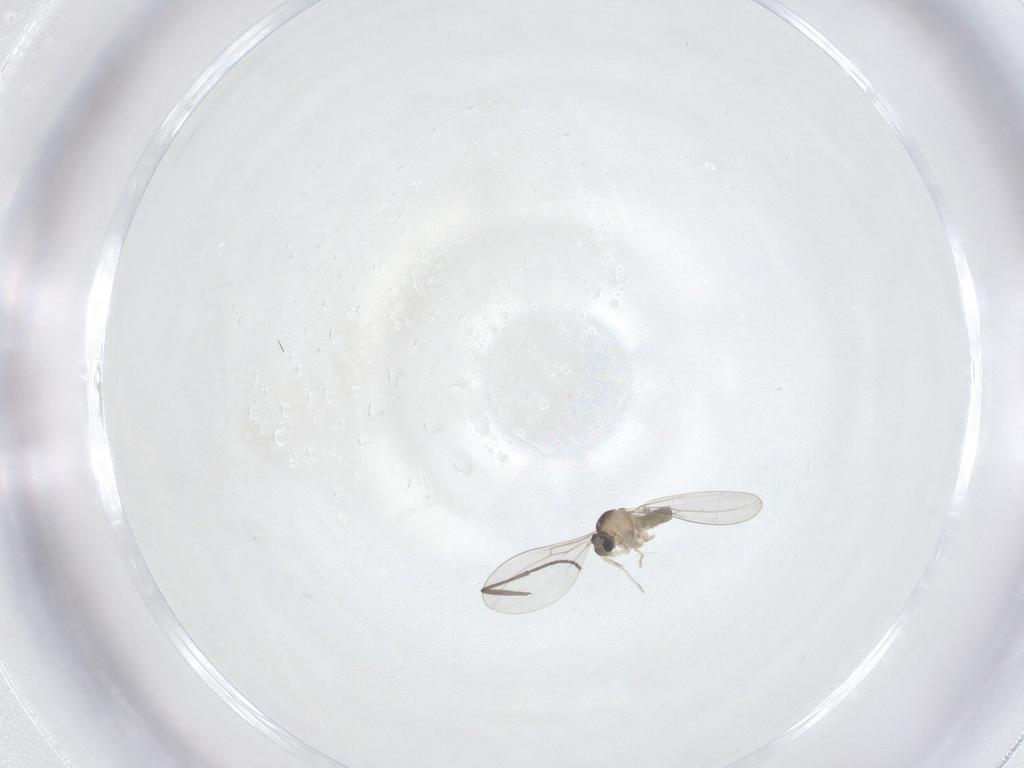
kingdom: Animalia
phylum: Arthropoda
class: Insecta
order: Diptera
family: Cecidomyiidae
